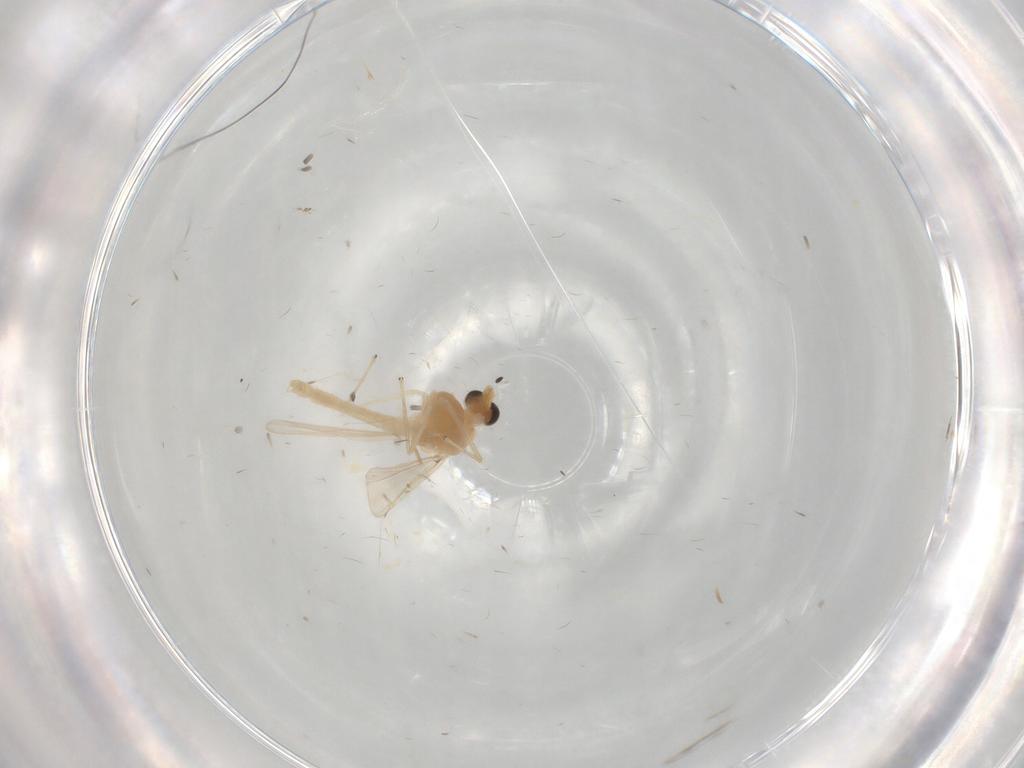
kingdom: Animalia
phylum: Arthropoda
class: Insecta
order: Diptera
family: Chironomidae
